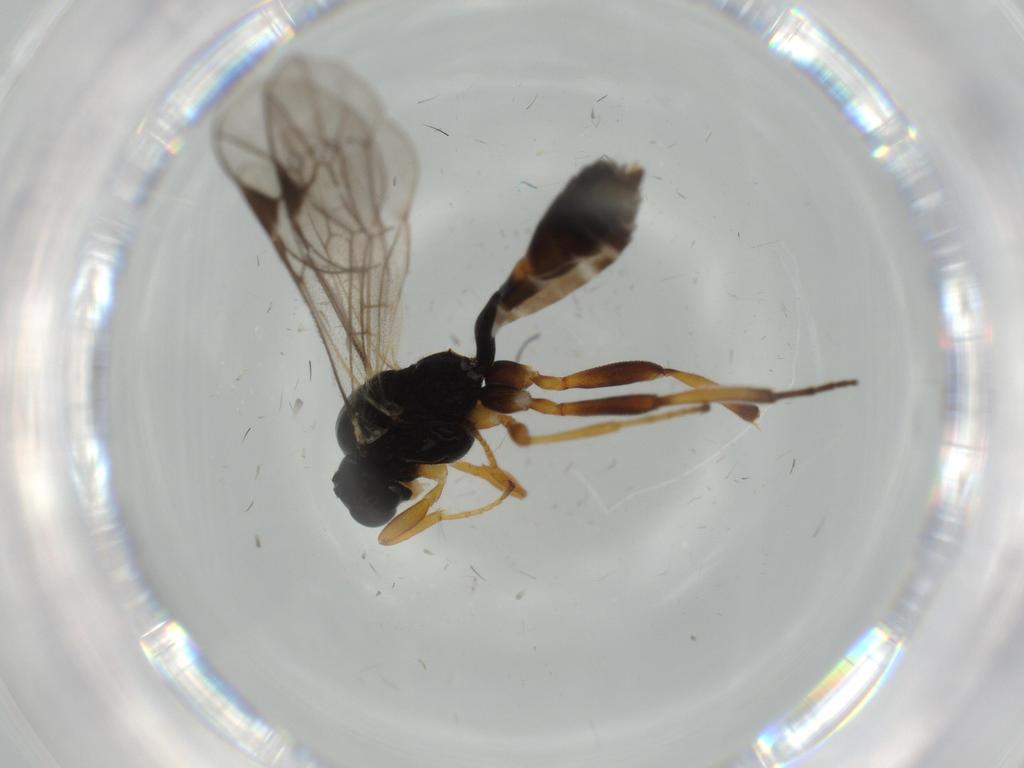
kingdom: Animalia
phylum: Arthropoda
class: Insecta
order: Hymenoptera
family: Braconidae
